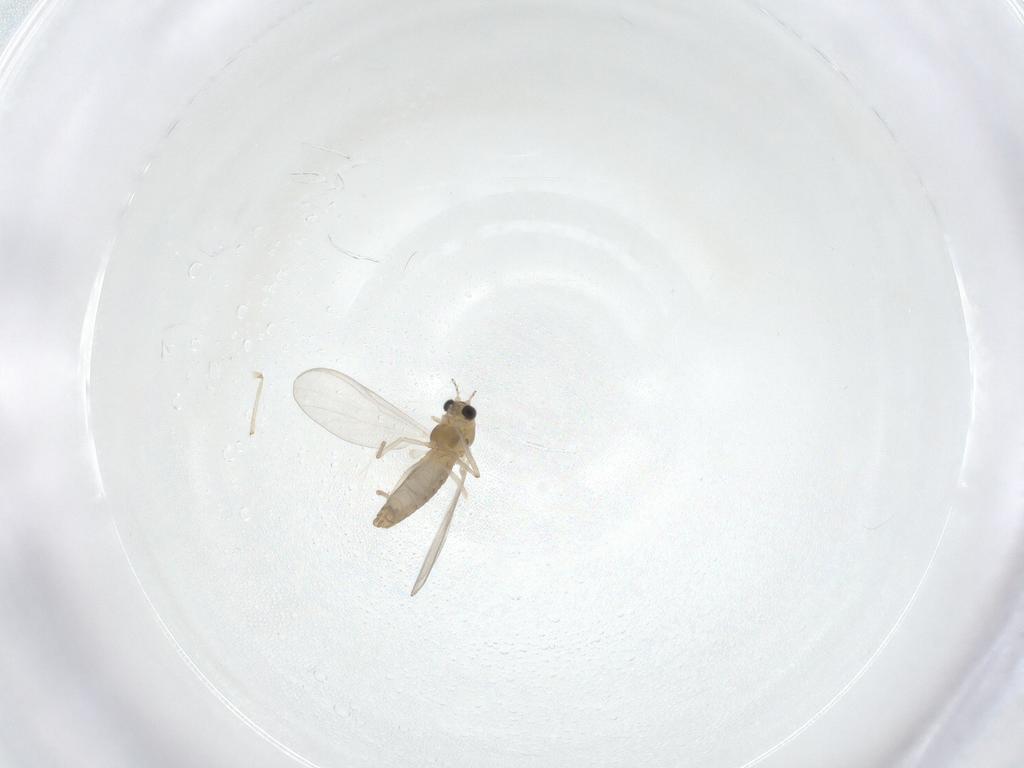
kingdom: Animalia
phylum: Arthropoda
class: Insecta
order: Diptera
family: Chironomidae
